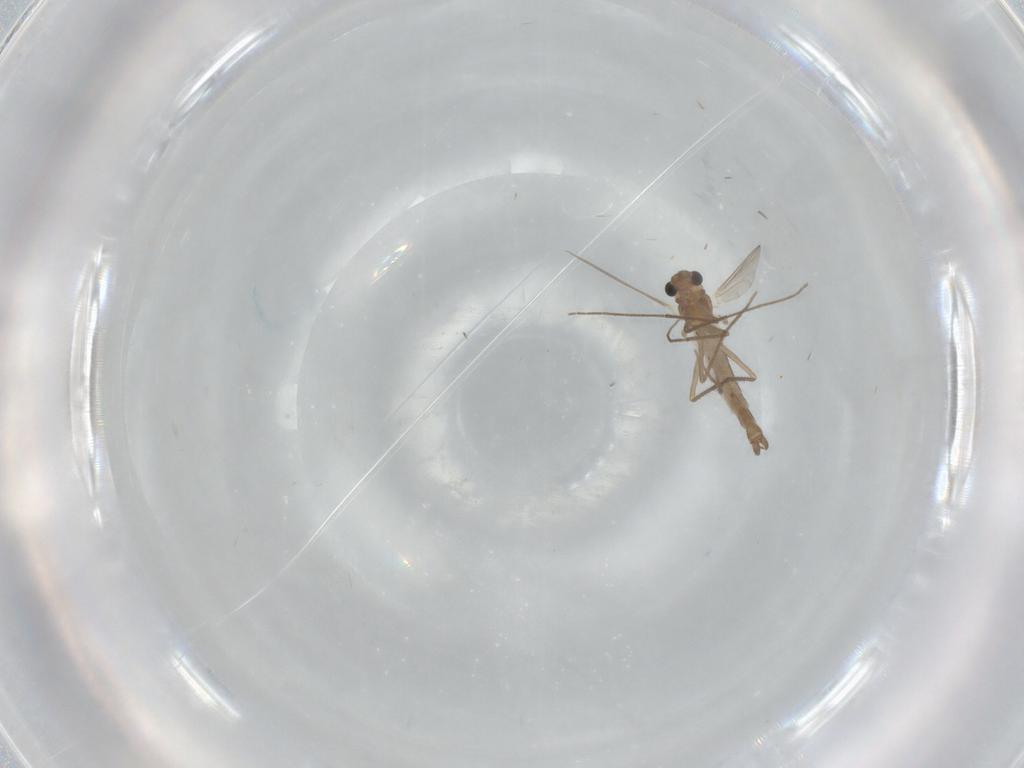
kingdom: Animalia
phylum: Arthropoda
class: Insecta
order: Diptera
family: Chironomidae
